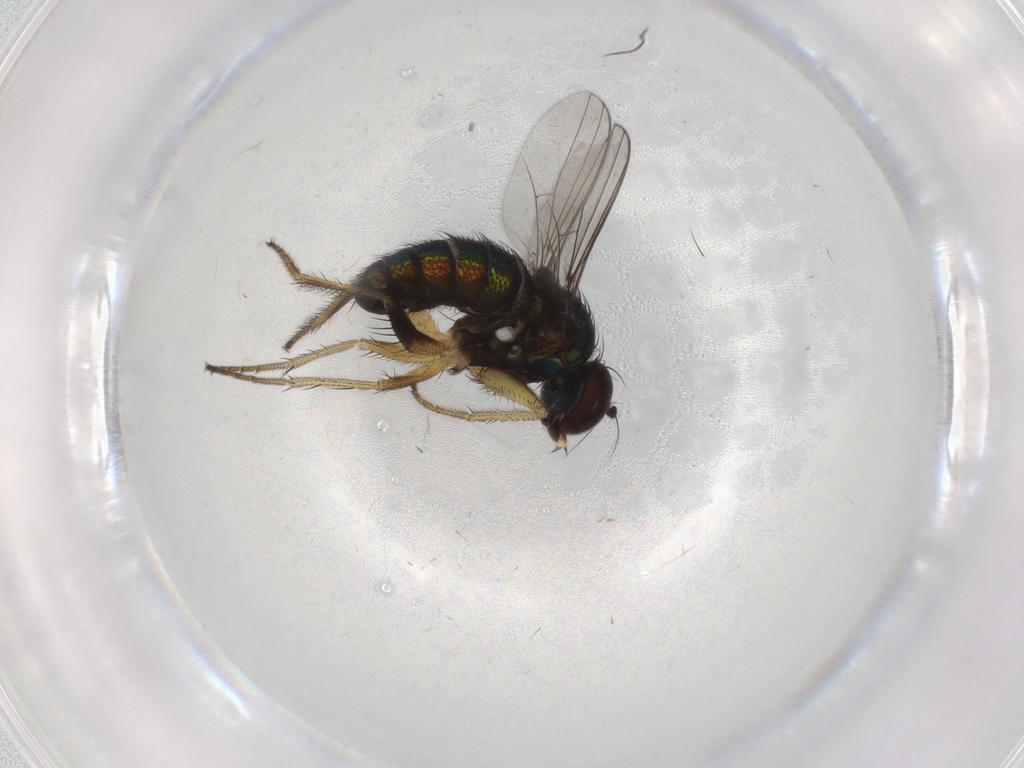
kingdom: Animalia
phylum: Arthropoda
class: Insecta
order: Diptera
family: Dolichopodidae
